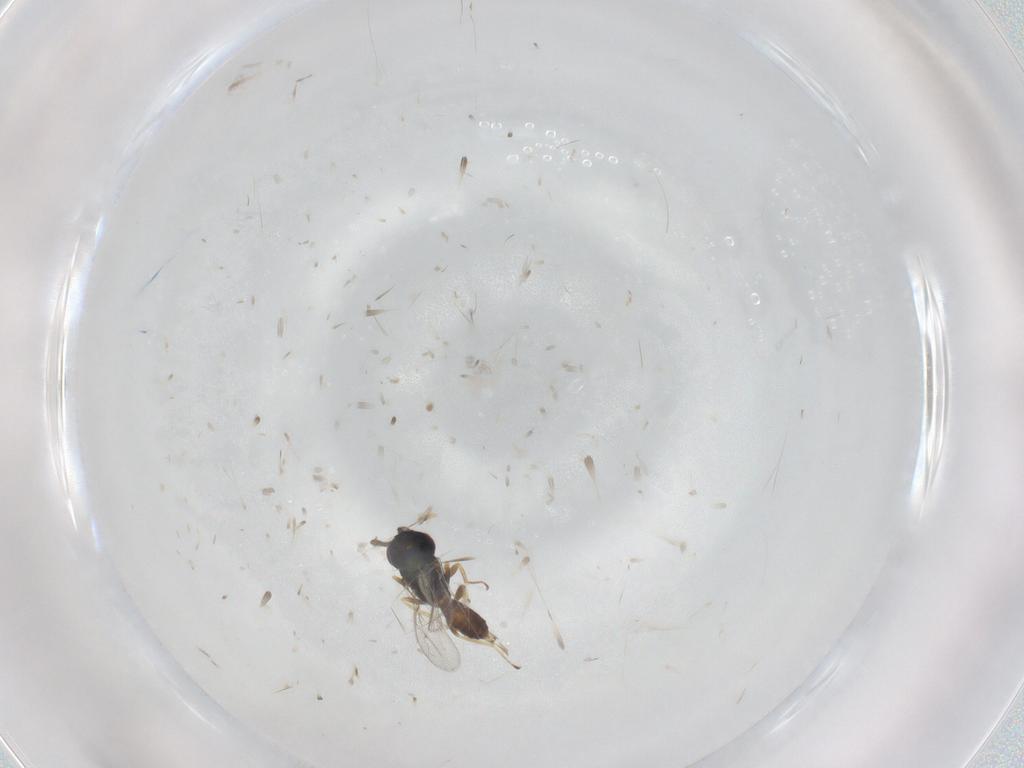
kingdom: Animalia
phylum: Arthropoda
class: Insecta
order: Hymenoptera
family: Pteromalidae
